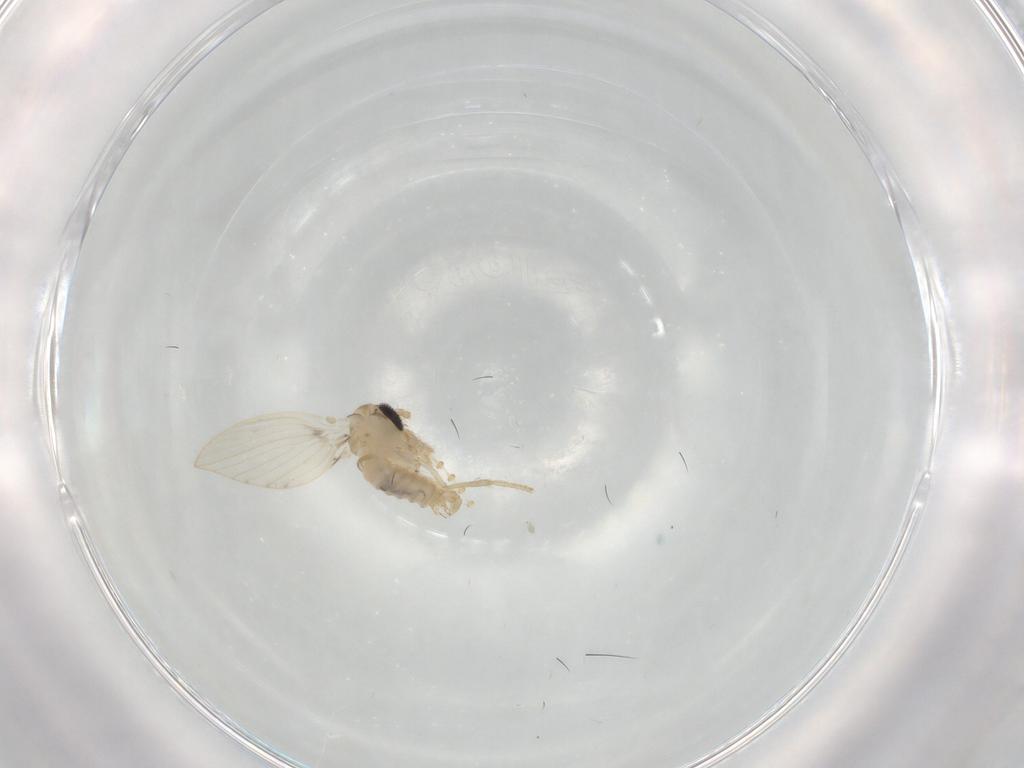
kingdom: Animalia
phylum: Arthropoda
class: Insecta
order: Diptera
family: Psychodidae
